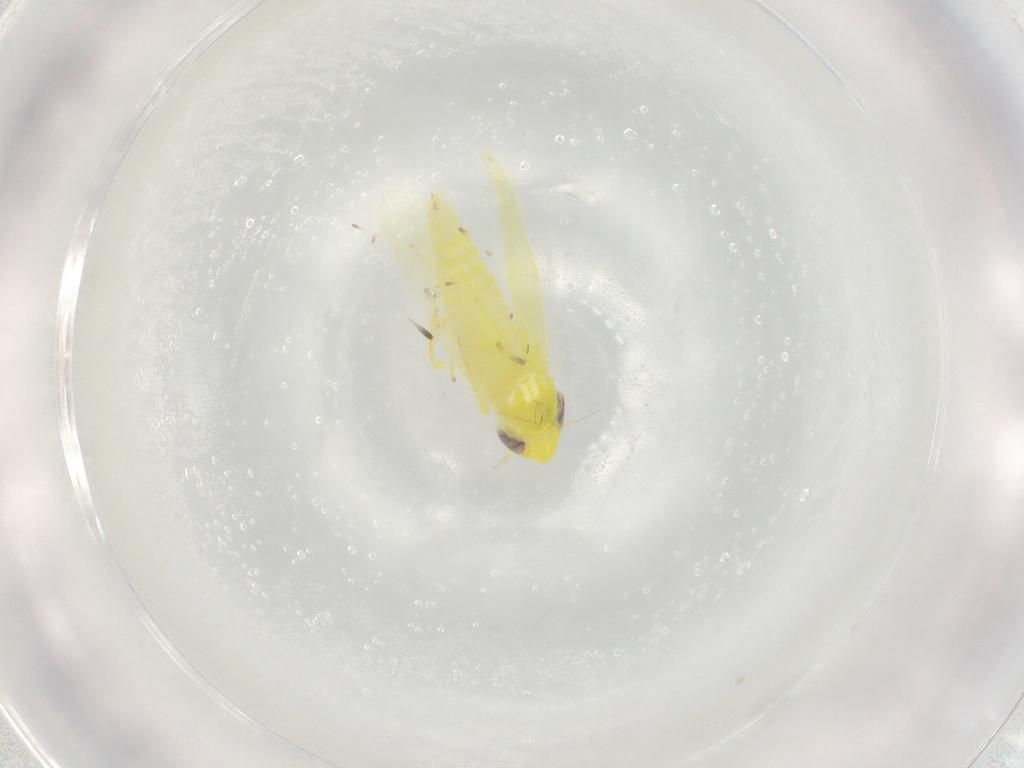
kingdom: Animalia
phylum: Arthropoda
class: Insecta
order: Hemiptera
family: Cicadellidae
